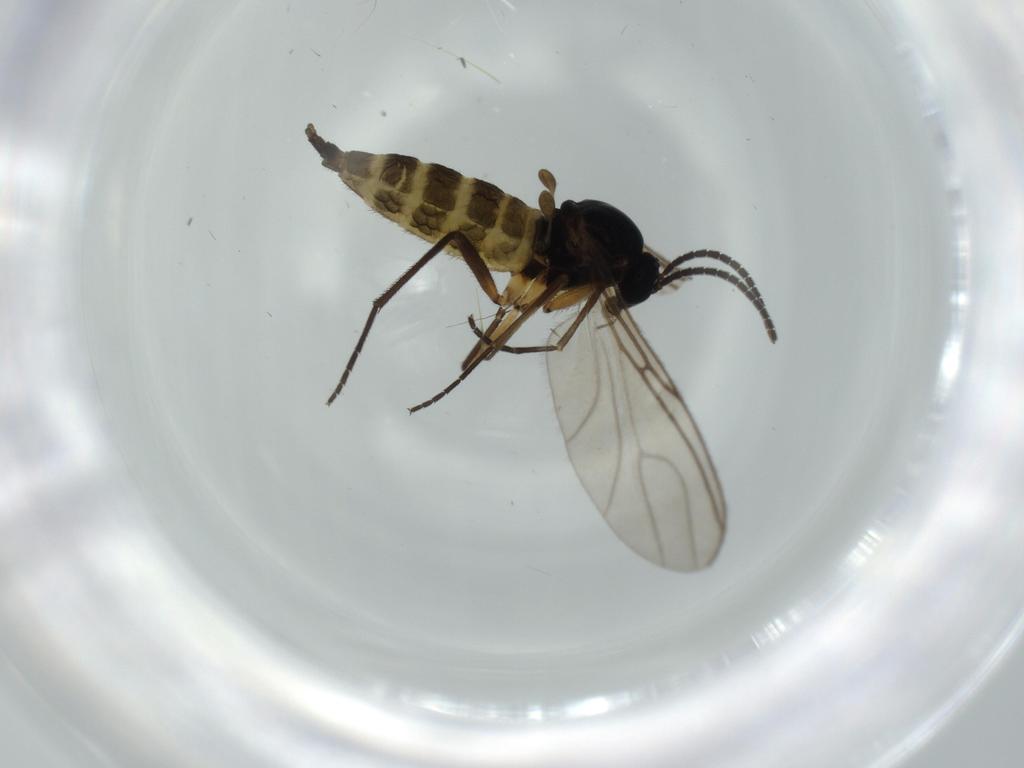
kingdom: Animalia
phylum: Arthropoda
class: Insecta
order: Diptera
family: Sciaridae
